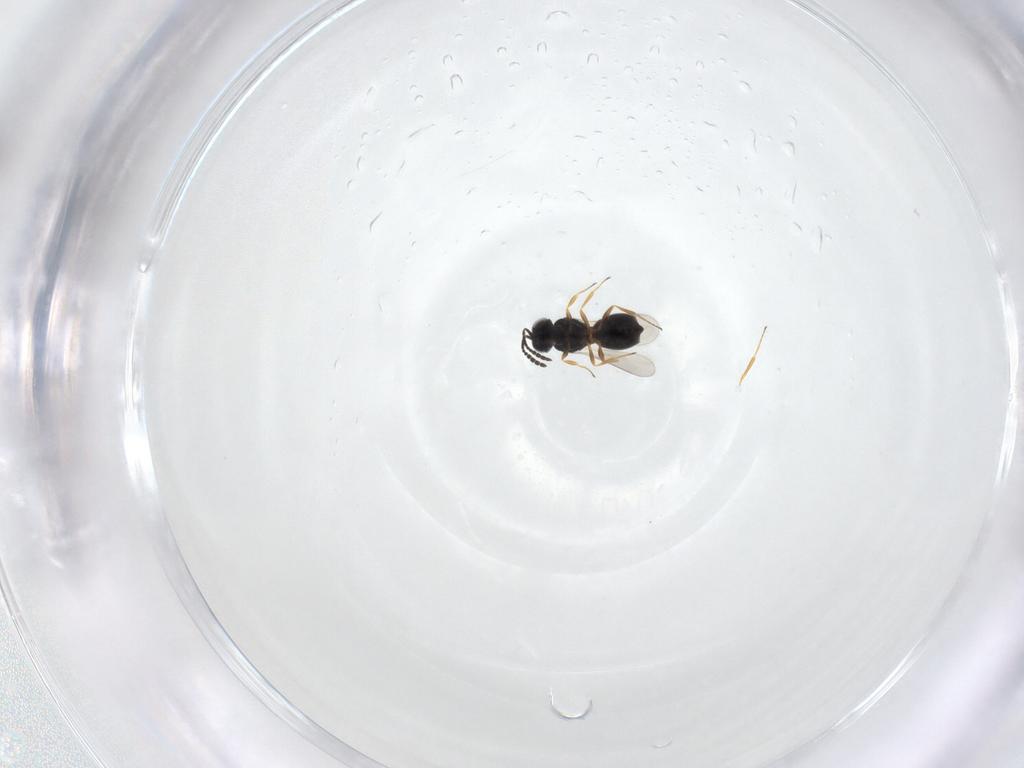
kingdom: Animalia
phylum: Arthropoda
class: Insecta
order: Hymenoptera
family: Scelionidae
